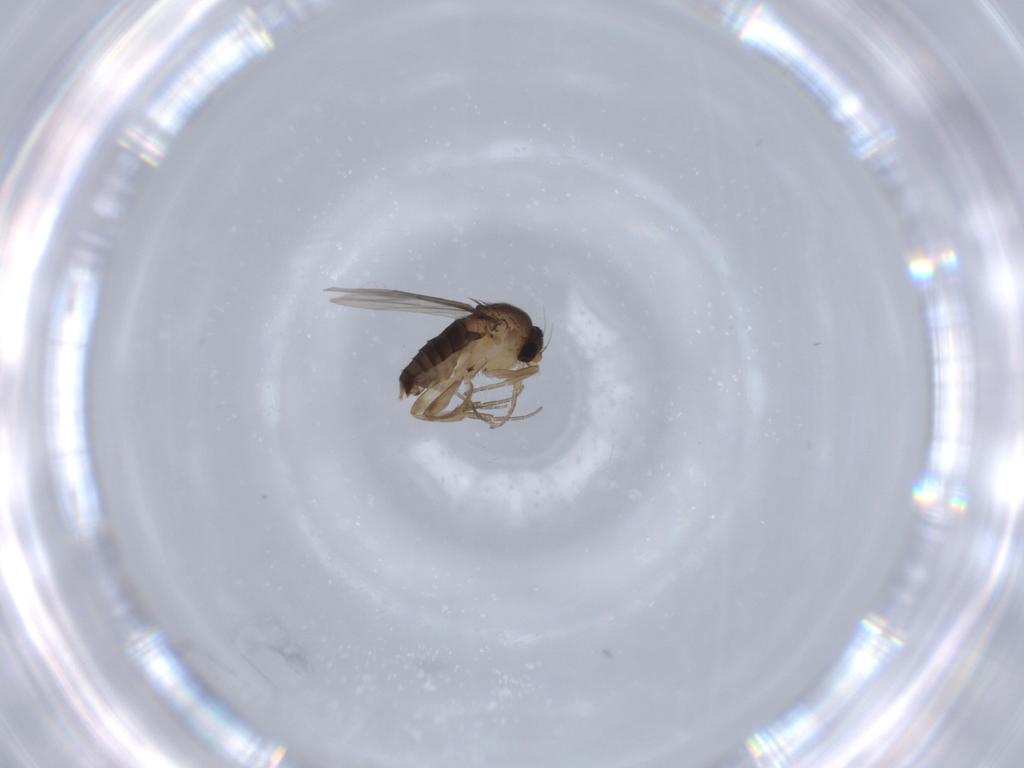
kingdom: Animalia
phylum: Arthropoda
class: Insecta
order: Diptera
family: Phoridae
